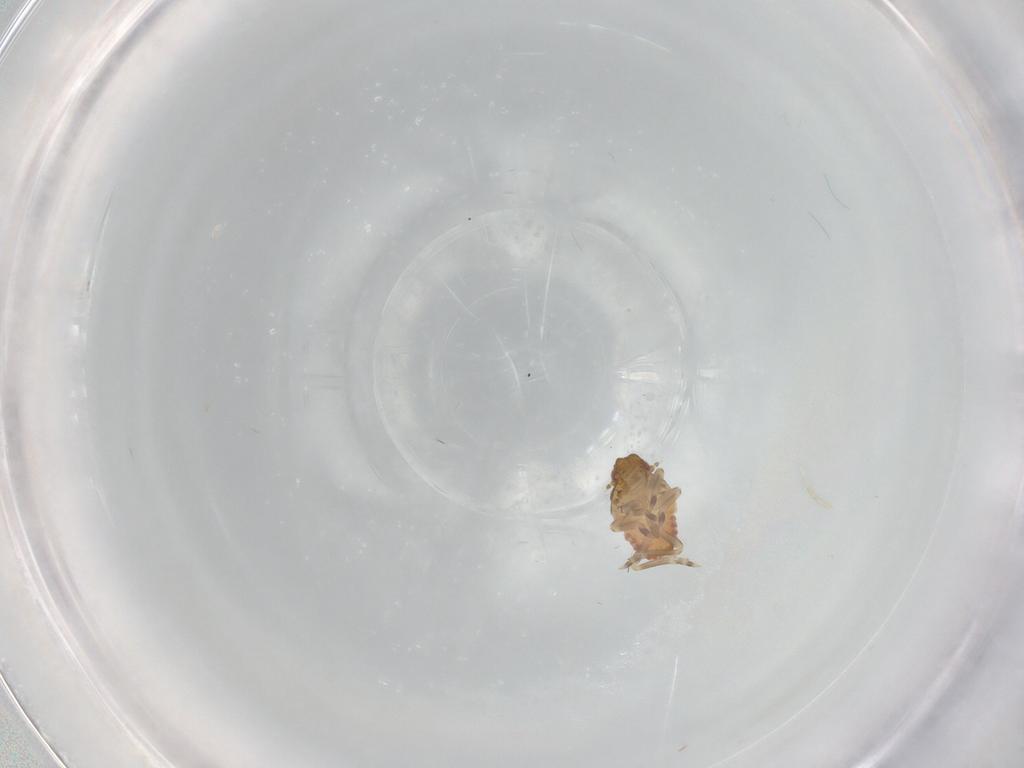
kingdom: Animalia
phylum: Arthropoda
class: Insecta
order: Hemiptera
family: Flatidae
